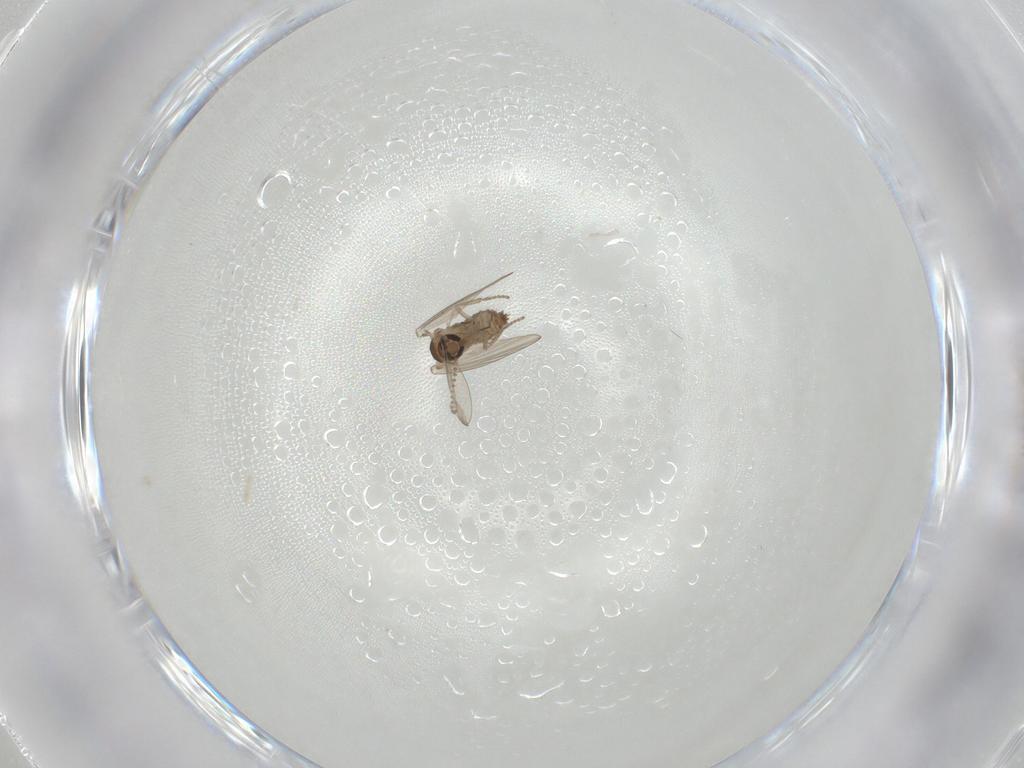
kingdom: Animalia
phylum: Arthropoda
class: Insecta
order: Diptera
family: Psychodidae
